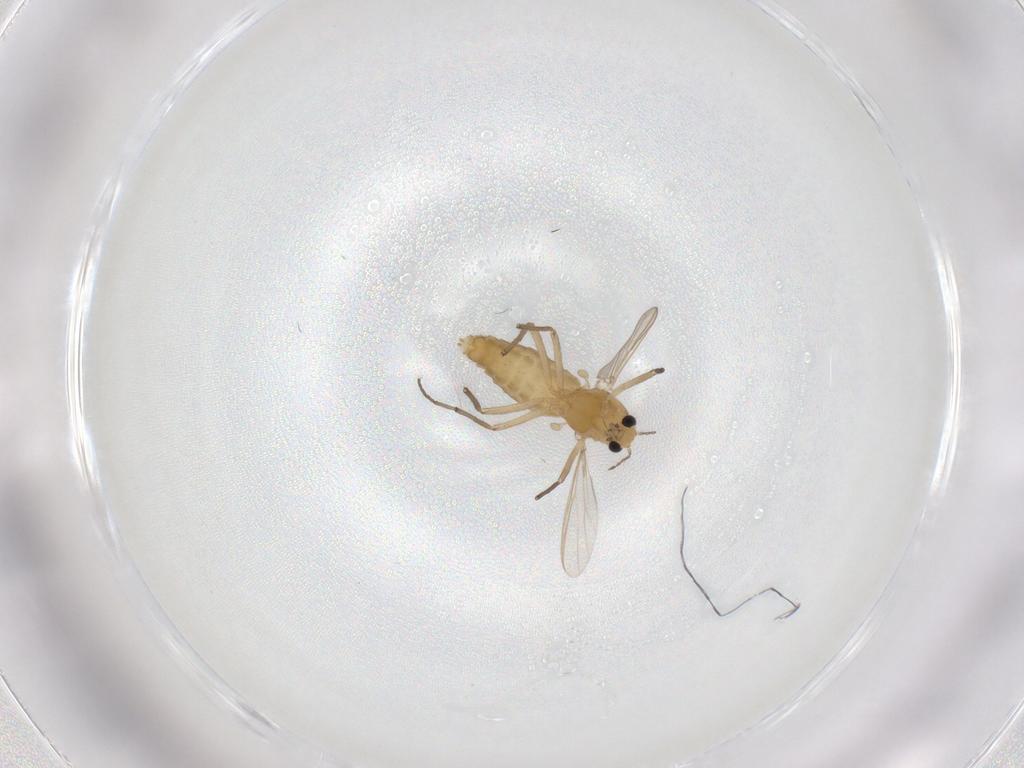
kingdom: Animalia
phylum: Arthropoda
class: Insecta
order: Diptera
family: Chironomidae
